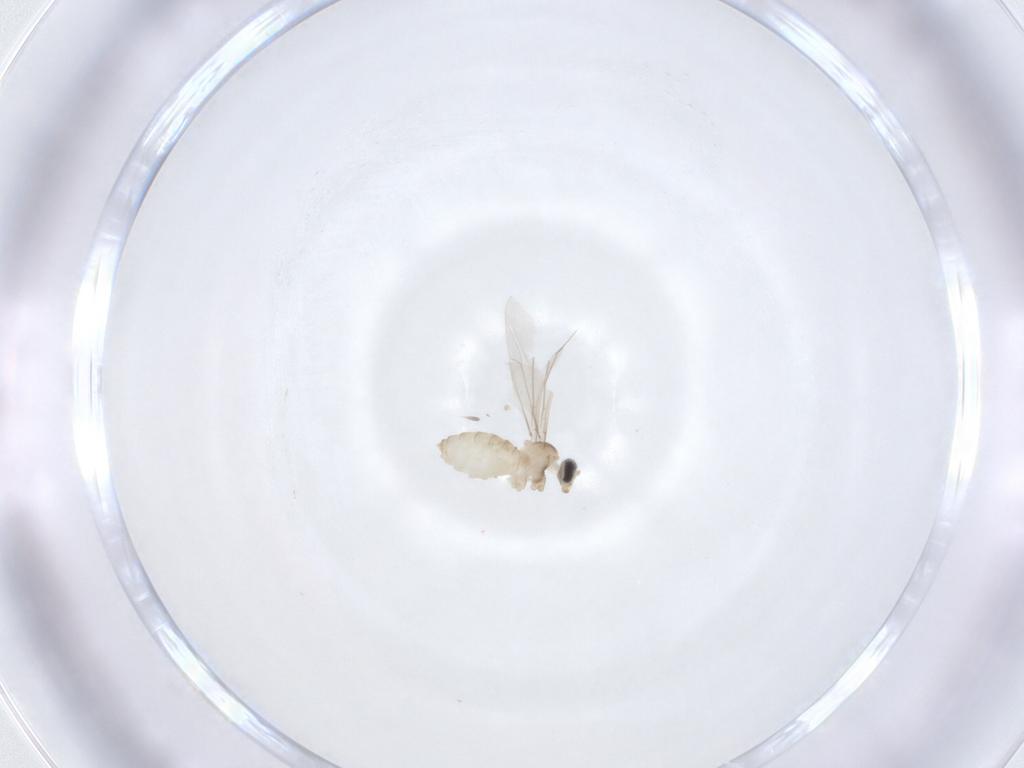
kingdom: Animalia
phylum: Arthropoda
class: Insecta
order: Diptera
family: Cecidomyiidae
